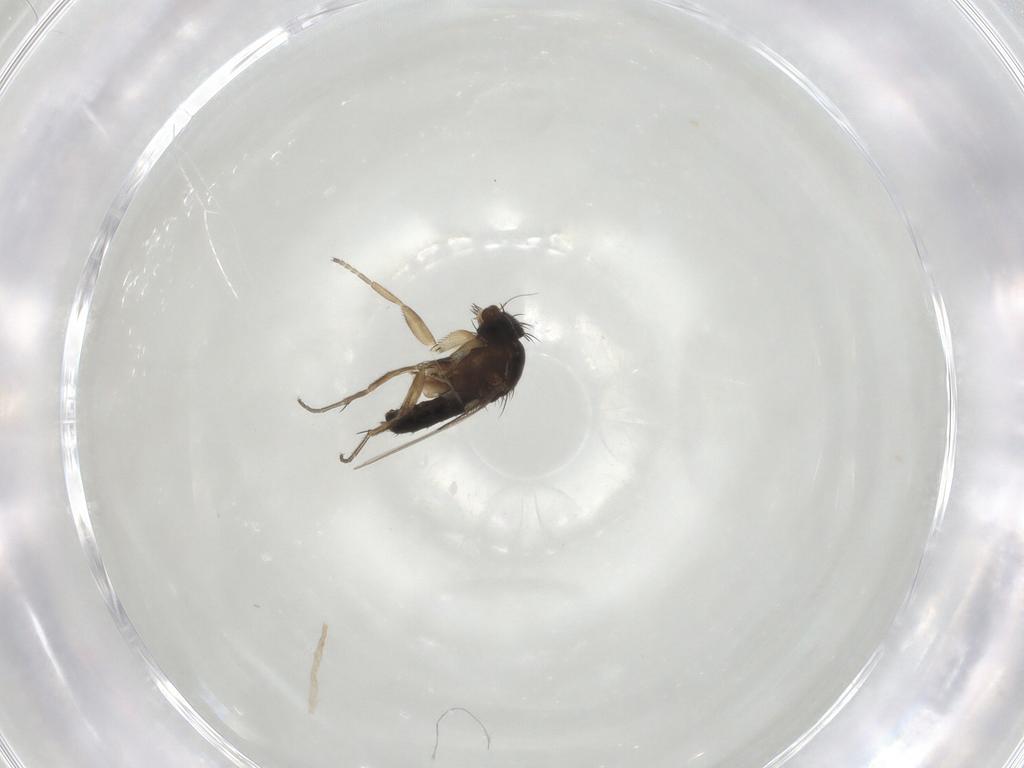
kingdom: Animalia
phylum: Arthropoda
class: Insecta
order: Diptera
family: Phoridae
